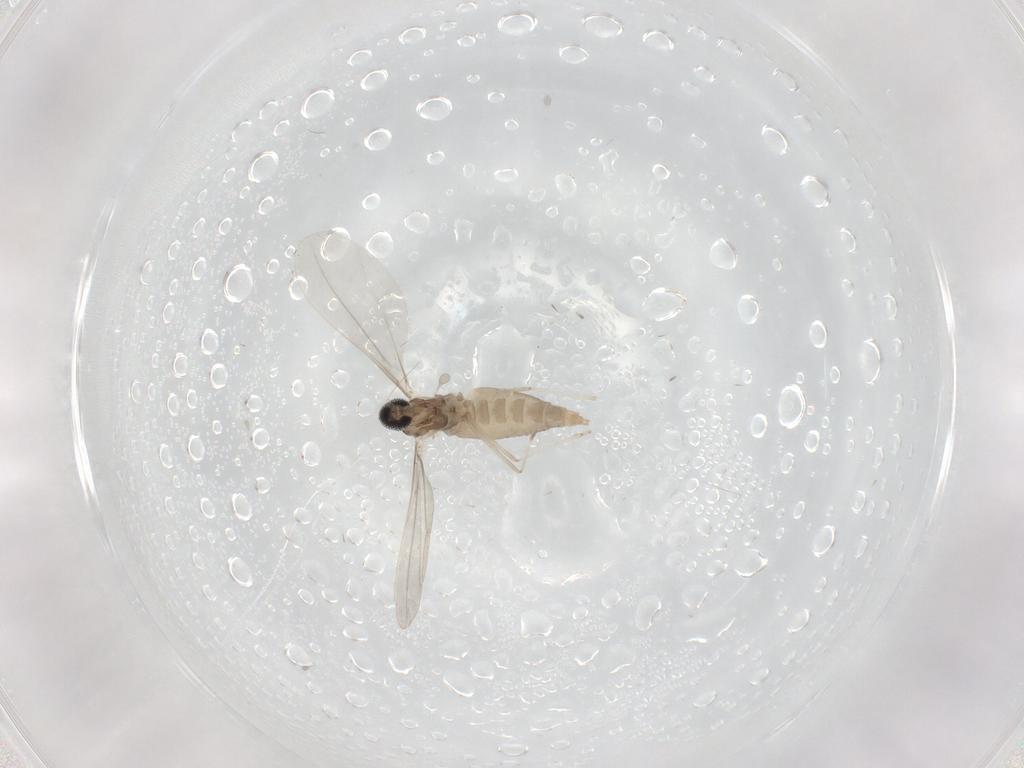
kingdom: Animalia
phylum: Arthropoda
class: Insecta
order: Diptera
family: Cecidomyiidae
